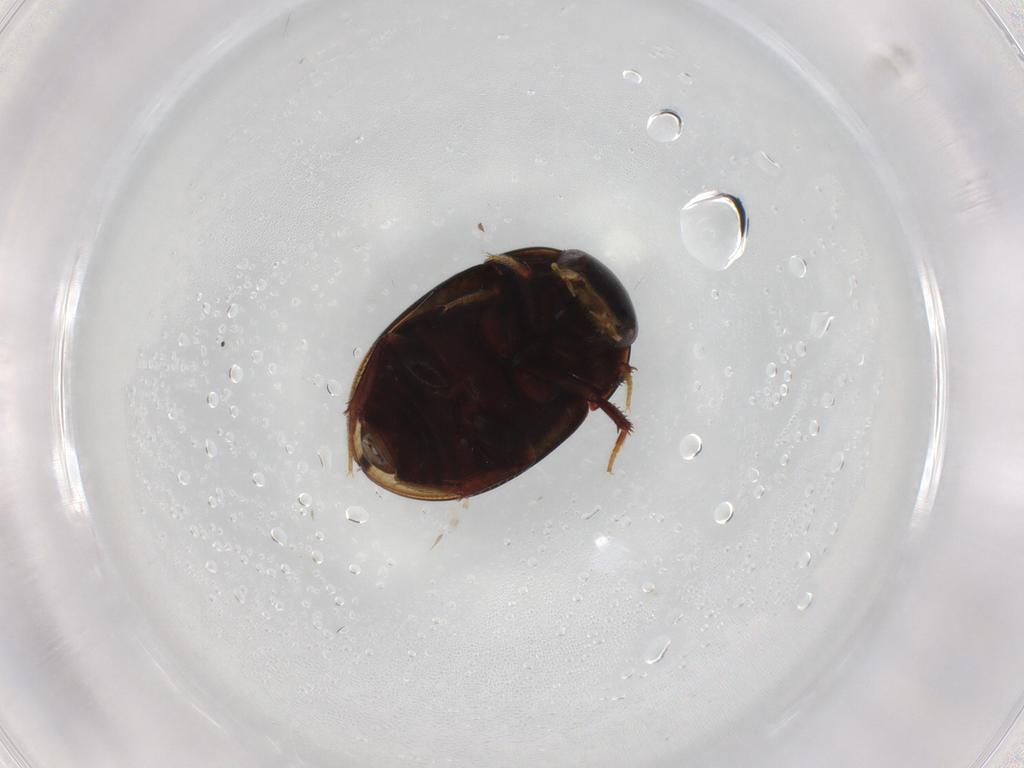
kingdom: Animalia
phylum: Arthropoda
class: Insecta
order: Coleoptera
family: Hydrophilidae
